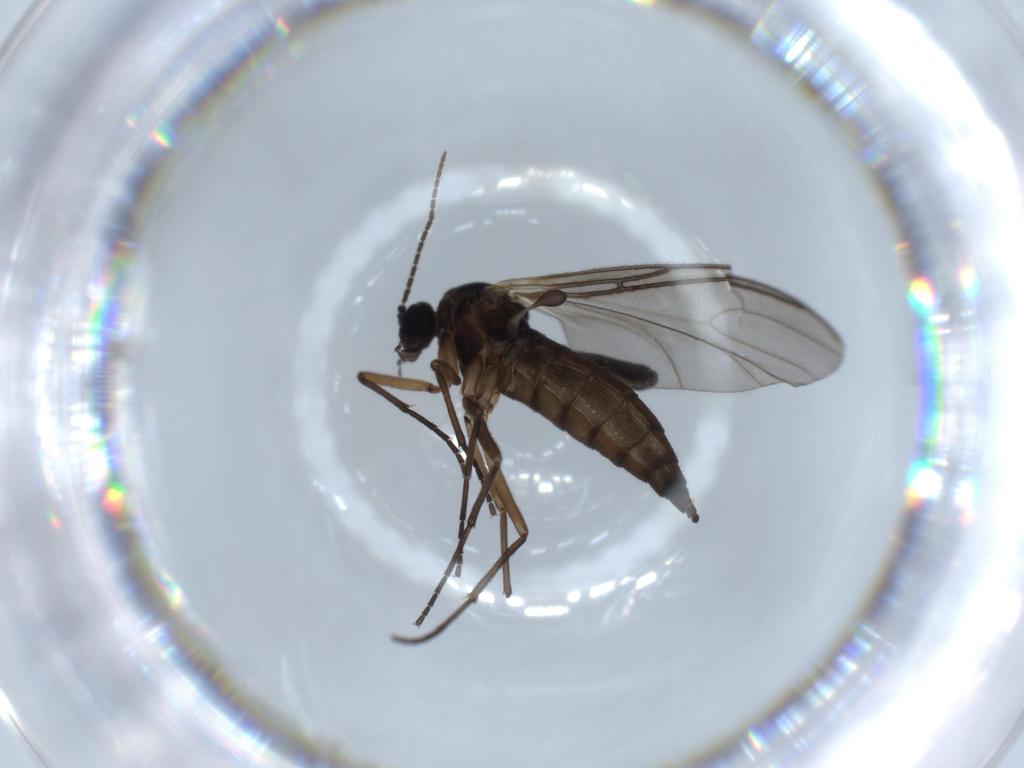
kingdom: Animalia
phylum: Arthropoda
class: Insecta
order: Diptera
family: Sciaridae
